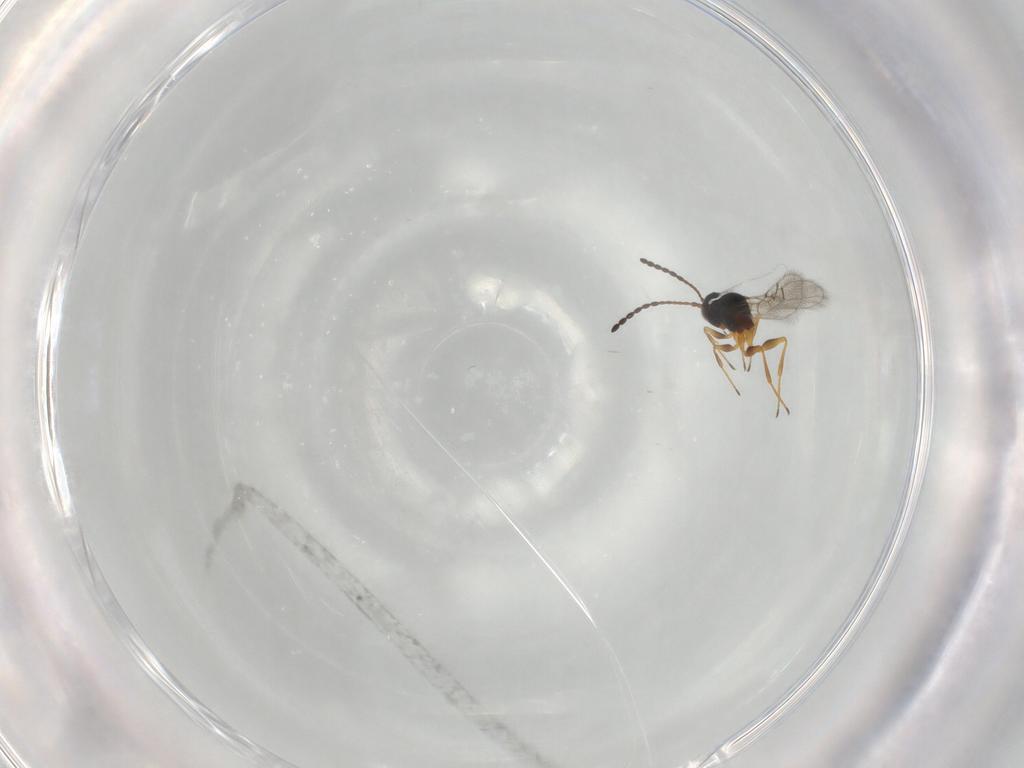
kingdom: Animalia
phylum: Arthropoda
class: Insecta
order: Hymenoptera
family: Figitidae
